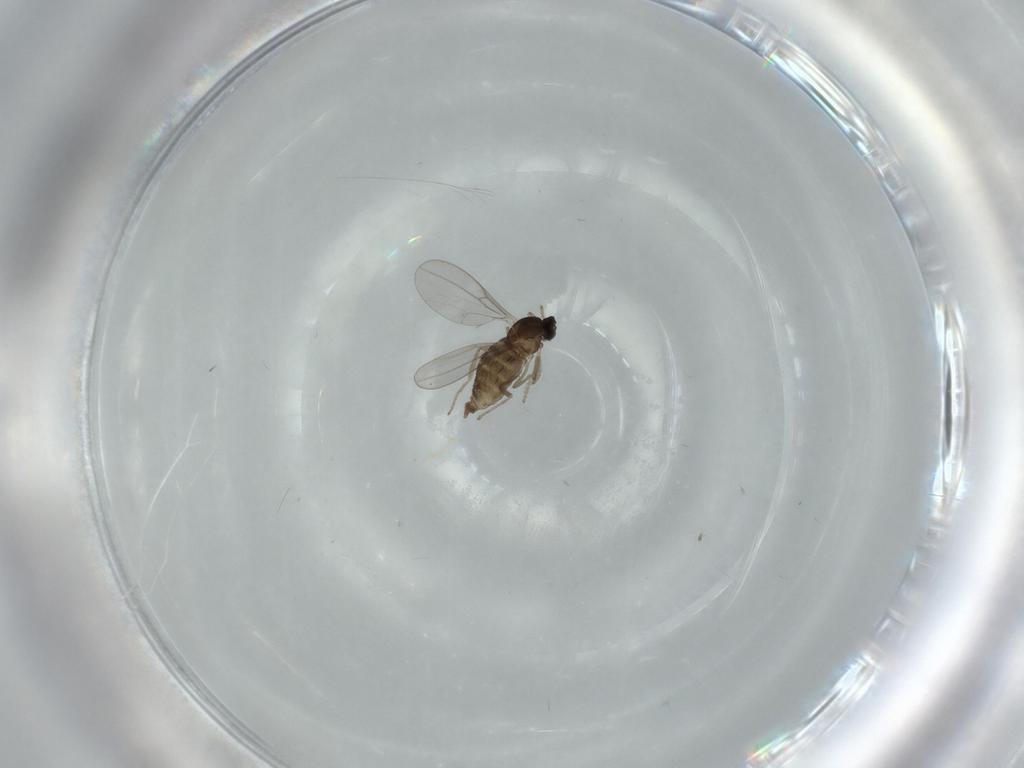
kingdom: Animalia
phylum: Arthropoda
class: Insecta
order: Diptera
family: Cecidomyiidae
